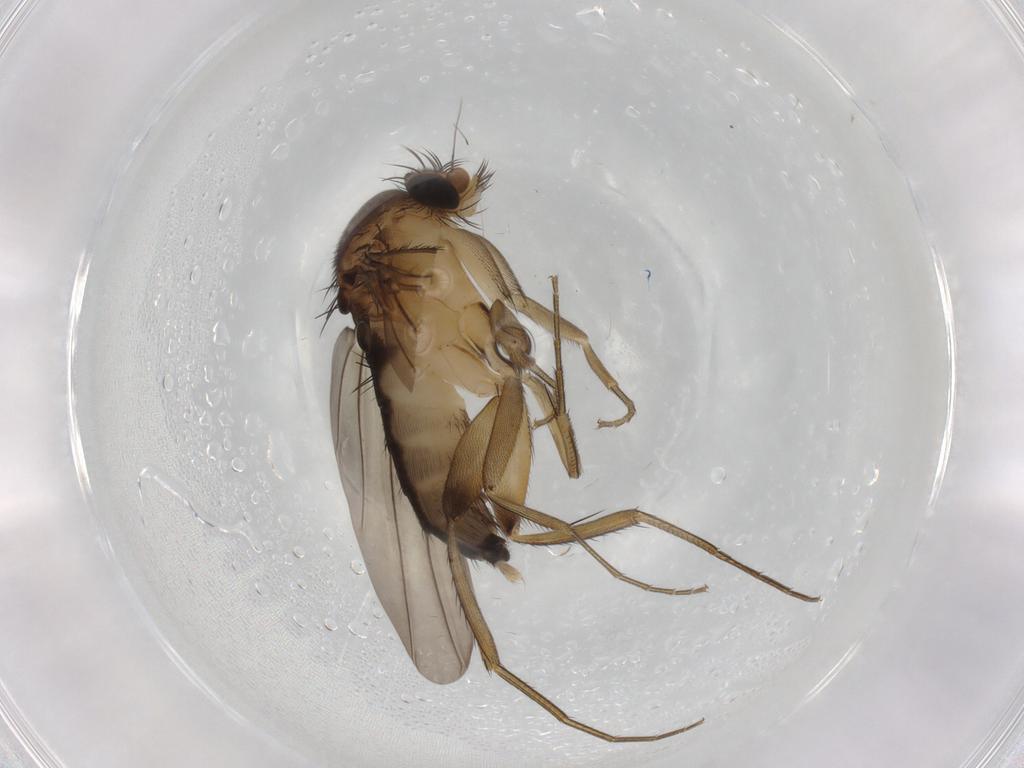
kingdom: Animalia
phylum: Arthropoda
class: Insecta
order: Diptera
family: Phoridae
